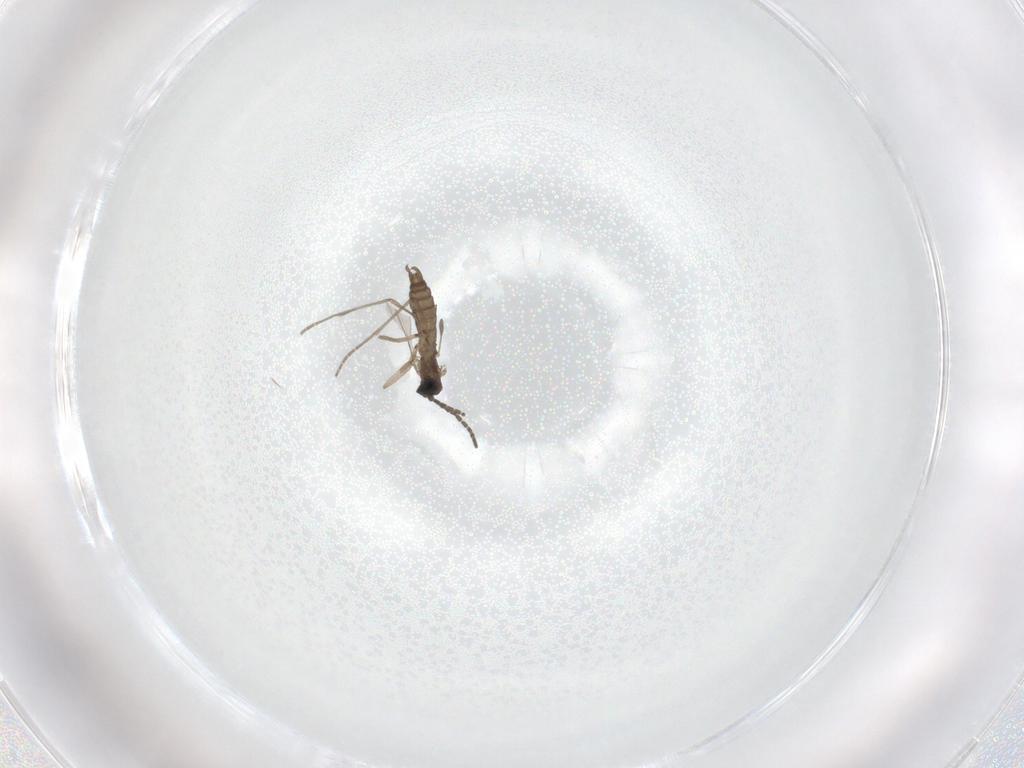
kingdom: Animalia
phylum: Arthropoda
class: Insecta
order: Diptera
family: Sciaridae
